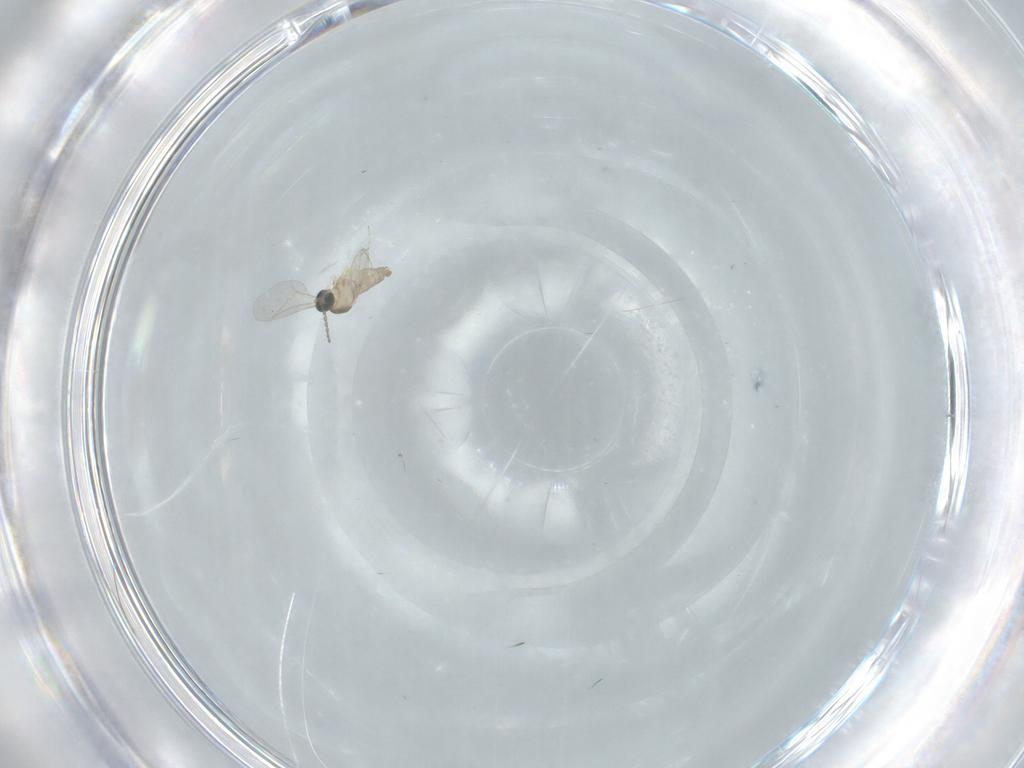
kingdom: Animalia
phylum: Arthropoda
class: Insecta
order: Diptera
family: Cecidomyiidae
